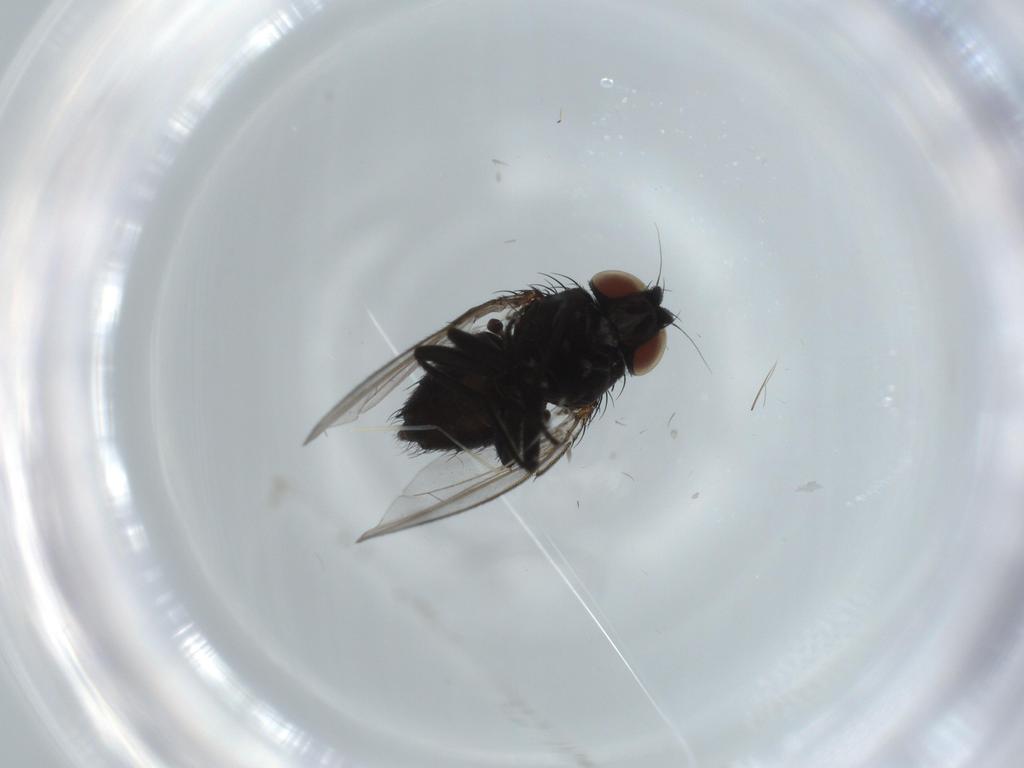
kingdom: Animalia
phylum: Arthropoda
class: Insecta
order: Diptera
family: Milichiidae
